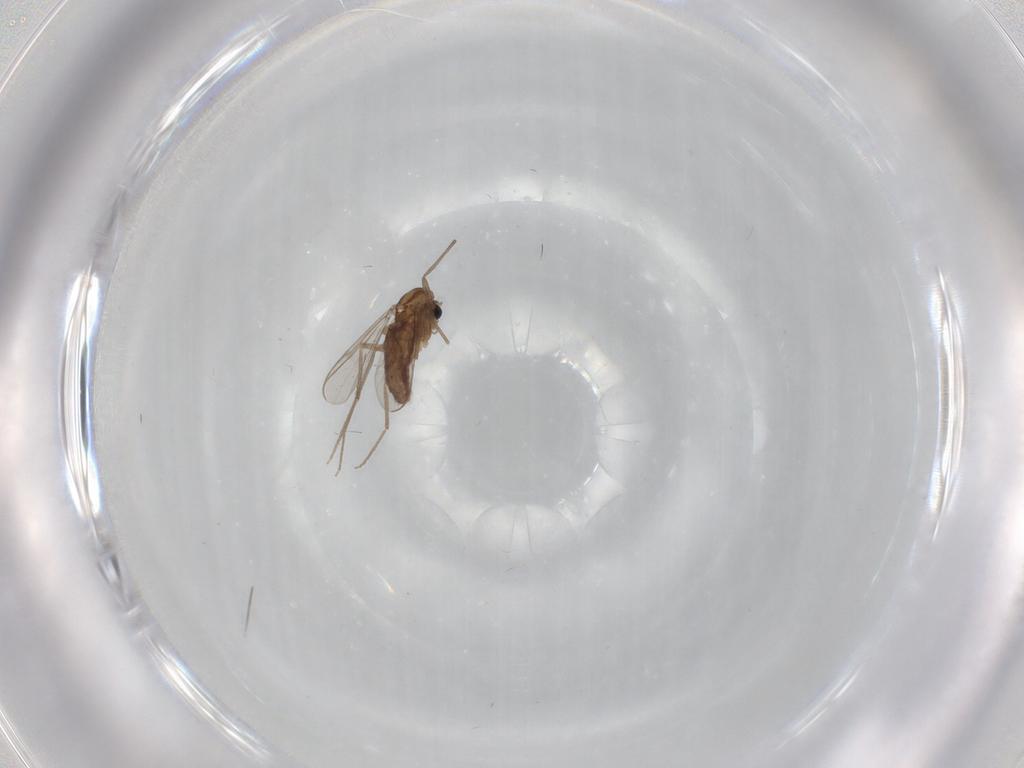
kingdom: Animalia
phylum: Arthropoda
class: Insecta
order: Diptera
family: Chironomidae
